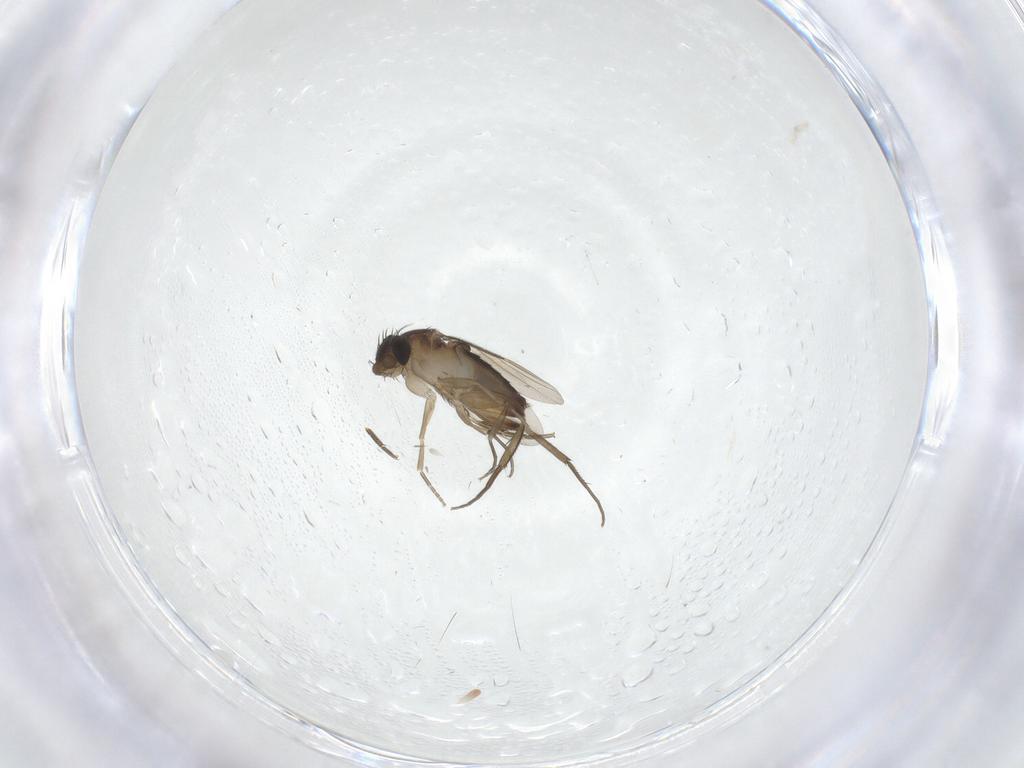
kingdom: Animalia
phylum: Arthropoda
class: Insecta
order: Diptera
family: Phoridae
